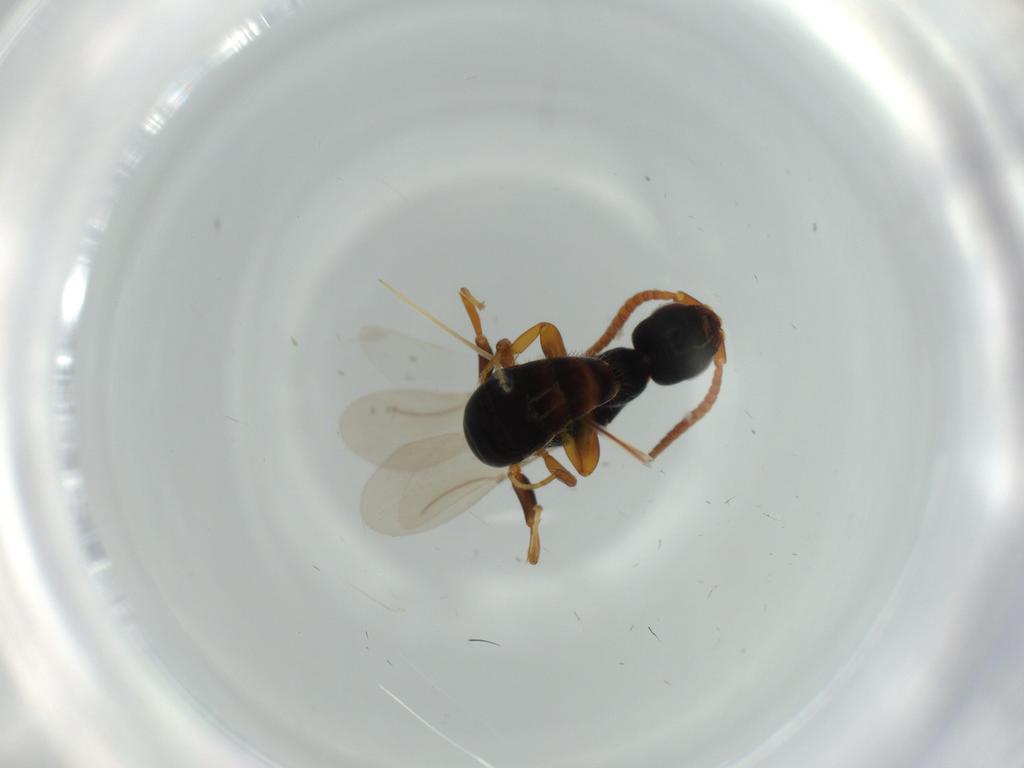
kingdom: Animalia
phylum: Arthropoda
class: Insecta
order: Hymenoptera
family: Bethylidae
